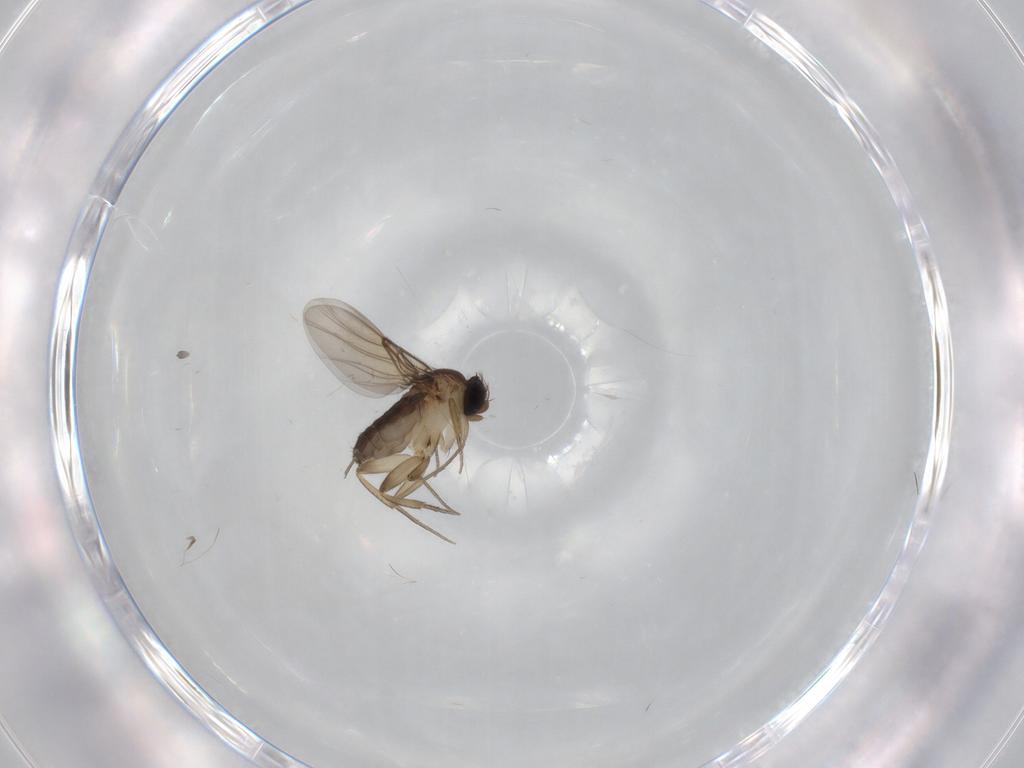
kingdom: Animalia
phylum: Arthropoda
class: Insecta
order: Diptera
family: Phoridae
